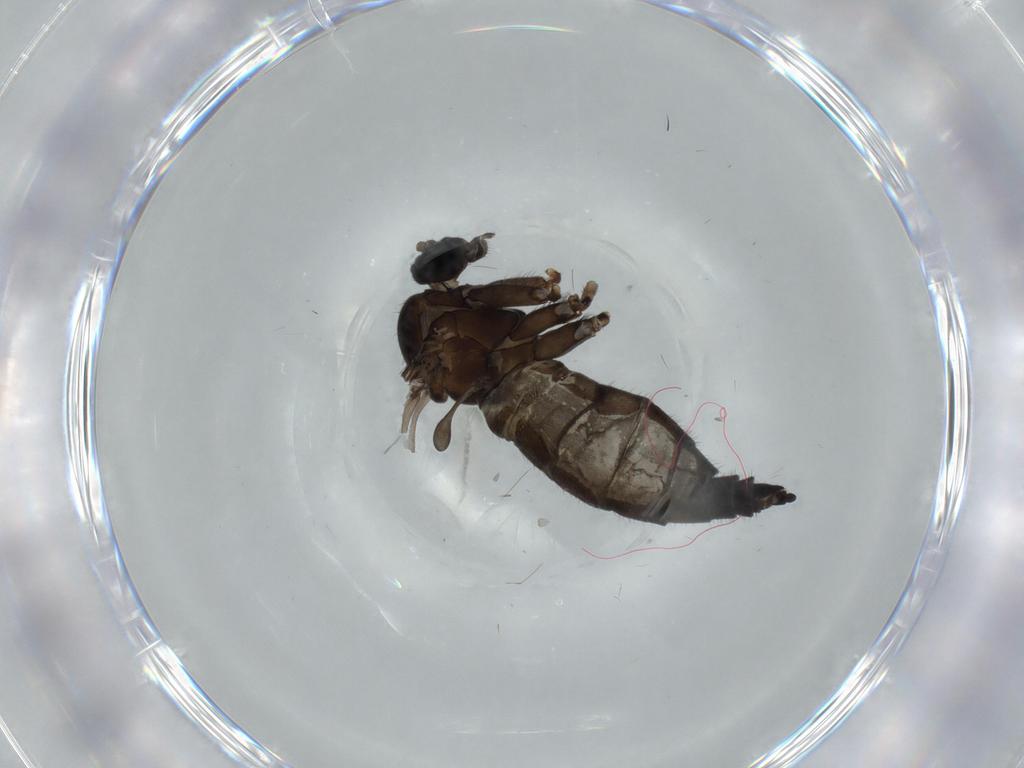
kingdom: Animalia
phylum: Arthropoda
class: Insecta
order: Diptera
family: Sciaridae
